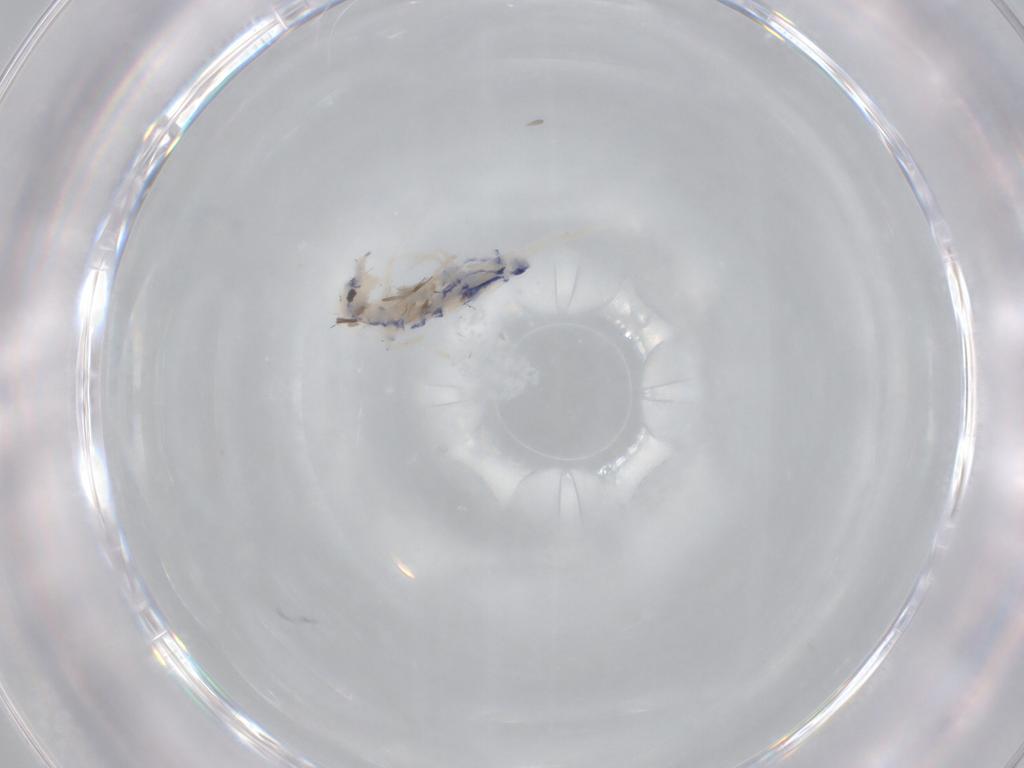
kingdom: Animalia
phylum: Arthropoda
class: Collembola
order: Entomobryomorpha
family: Entomobryidae
